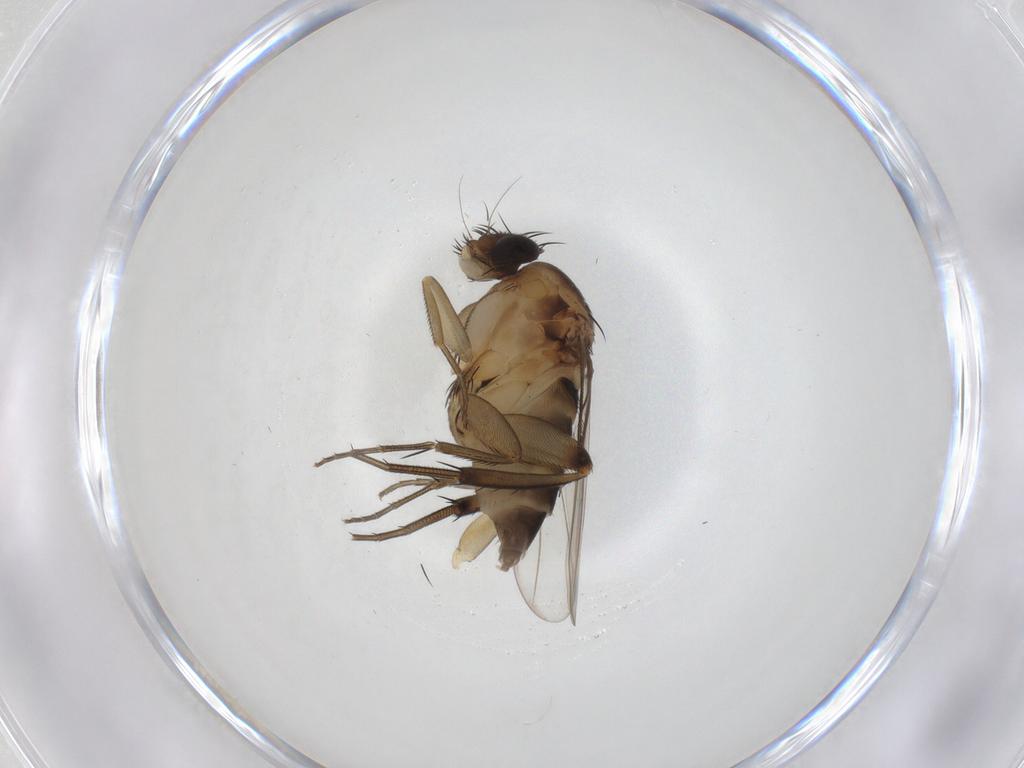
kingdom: Animalia
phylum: Arthropoda
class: Insecta
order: Diptera
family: Phoridae
